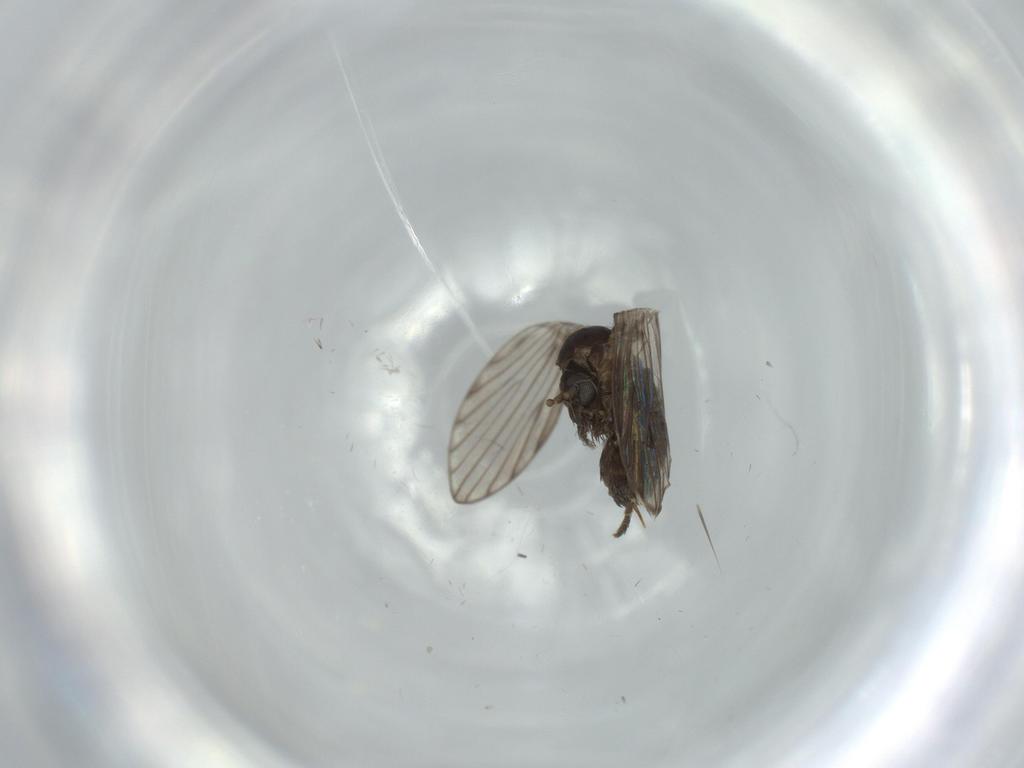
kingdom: Animalia
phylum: Arthropoda
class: Insecta
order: Diptera
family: Psychodidae
